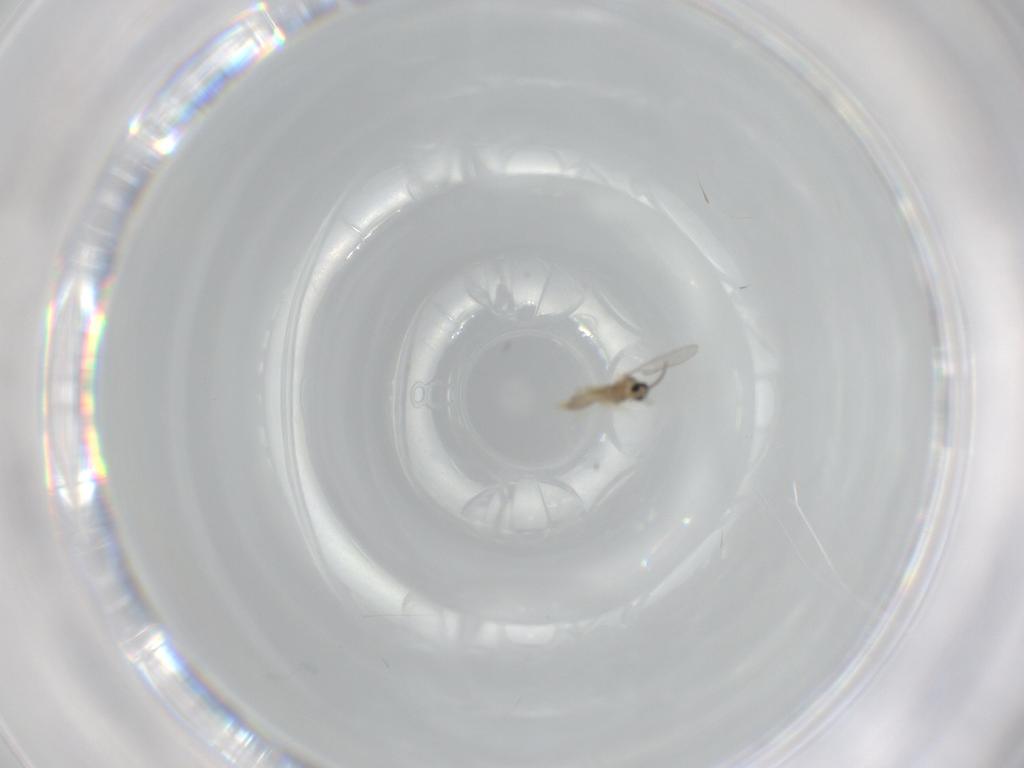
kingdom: Animalia
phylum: Arthropoda
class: Insecta
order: Diptera
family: Cecidomyiidae
